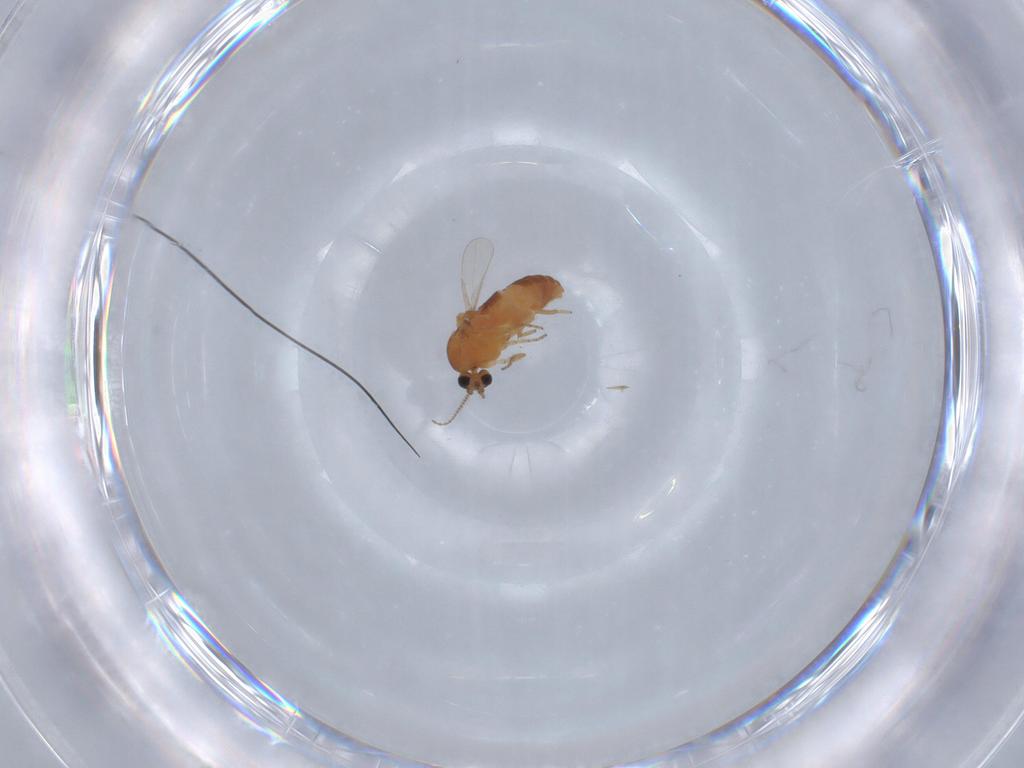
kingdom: Animalia
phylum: Arthropoda
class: Insecta
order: Diptera
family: Ceratopogonidae
